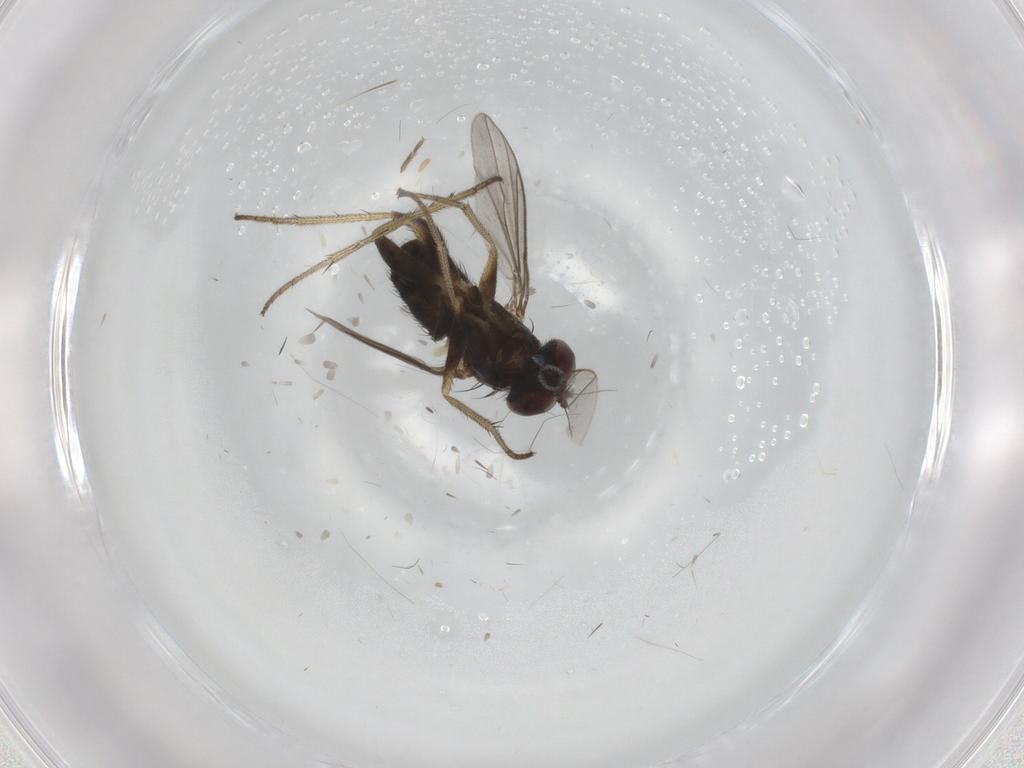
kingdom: Animalia
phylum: Arthropoda
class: Insecta
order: Diptera
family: Dolichopodidae
